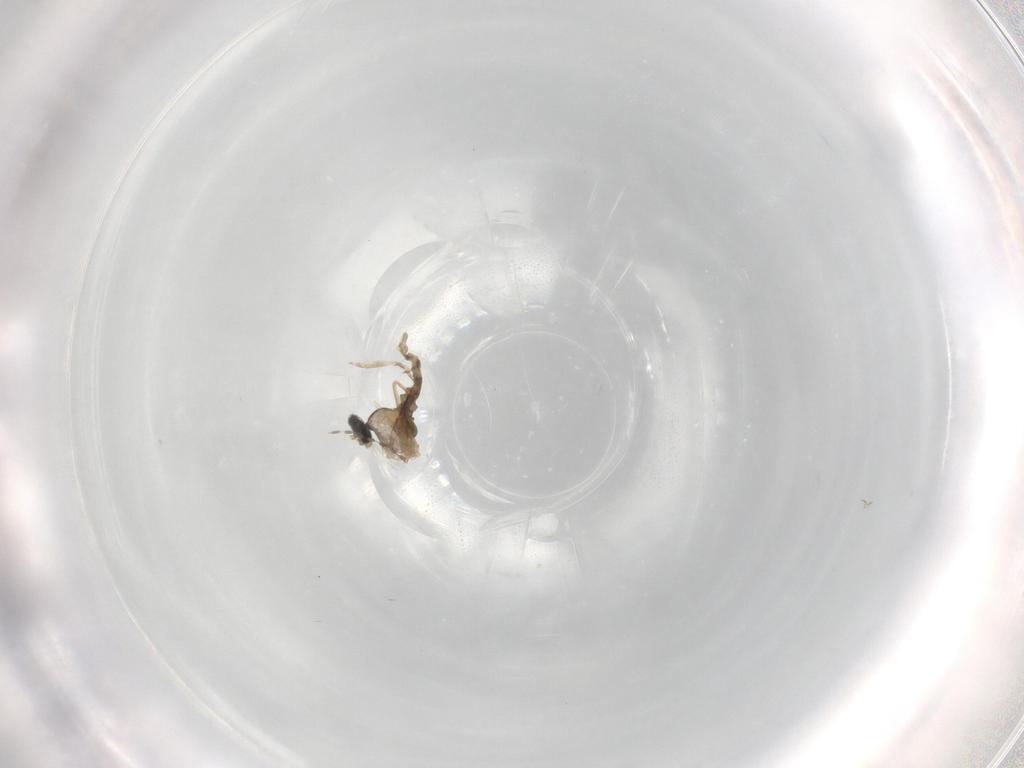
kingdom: Animalia
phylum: Arthropoda
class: Insecta
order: Diptera
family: Cecidomyiidae
